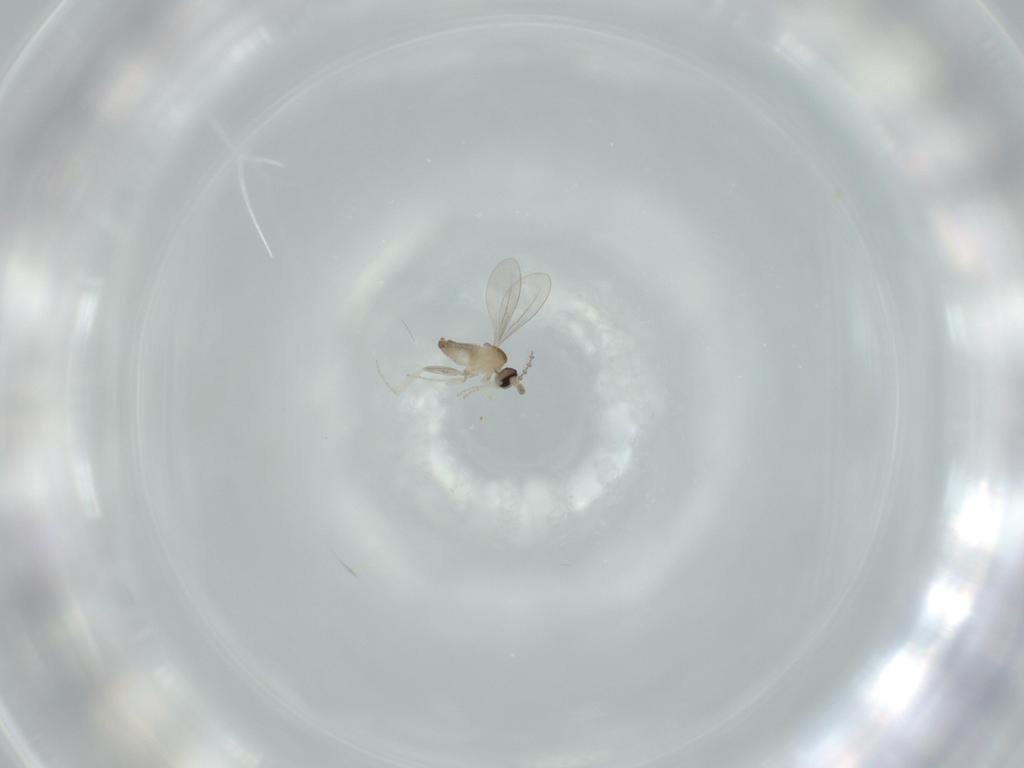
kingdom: Animalia
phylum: Arthropoda
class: Insecta
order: Diptera
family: Cecidomyiidae
